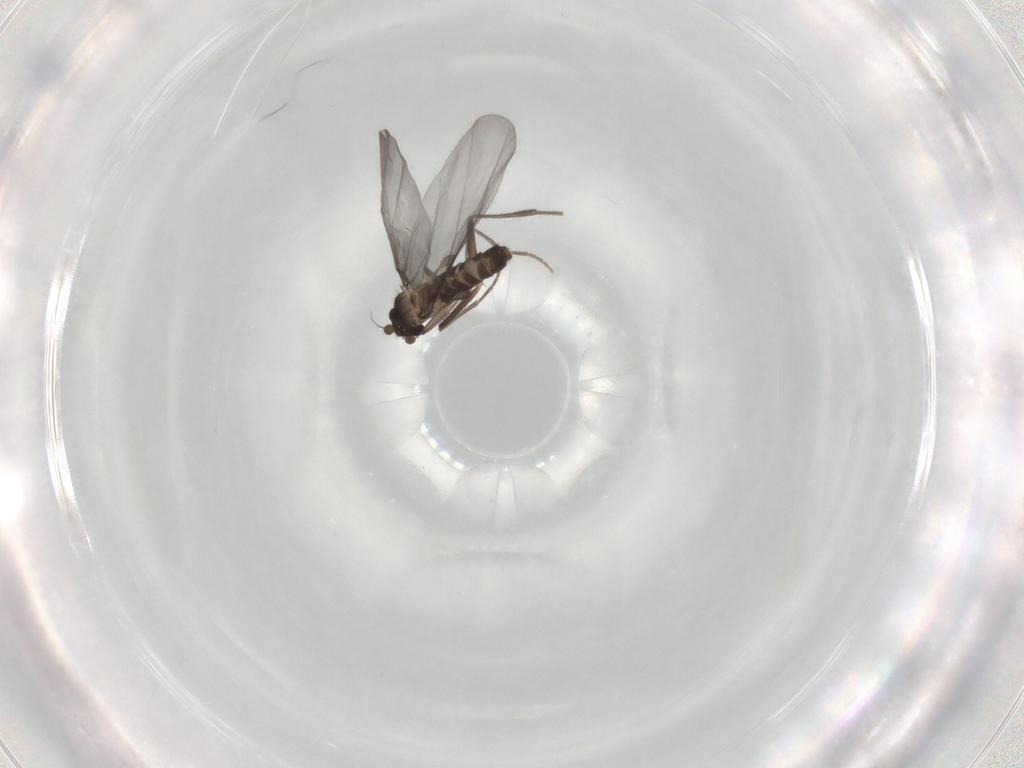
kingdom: Animalia
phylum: Arthropoda
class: Insecta
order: Diptera
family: Phoridae
